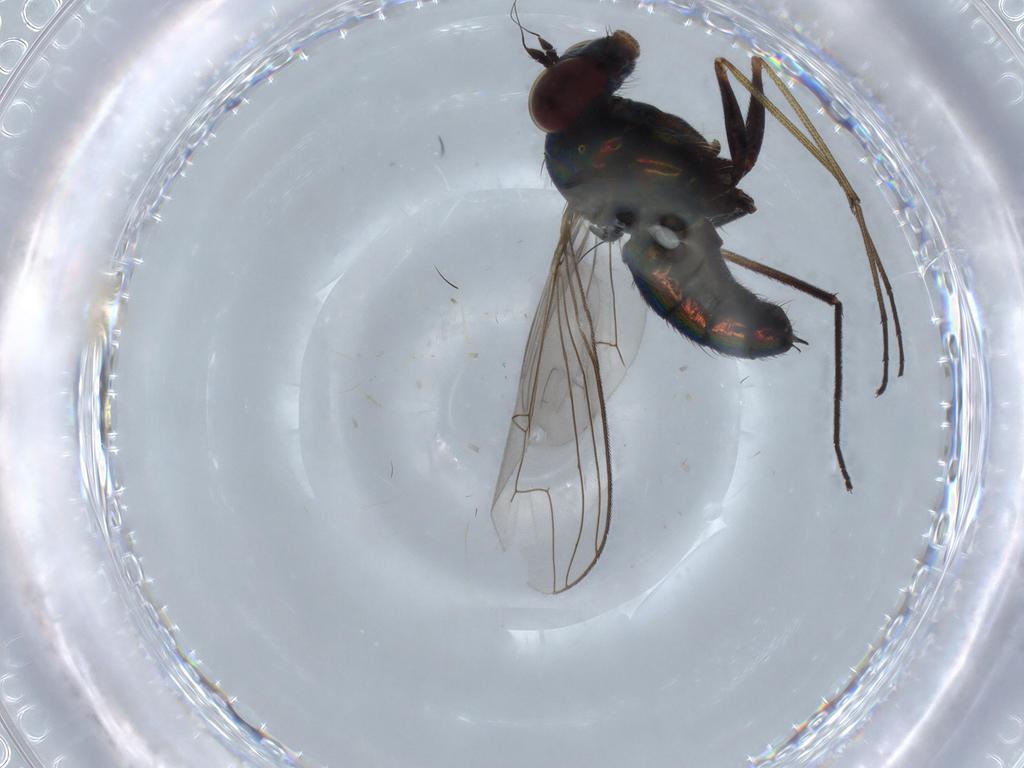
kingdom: Animalia
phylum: Arthropoda
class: Insecta
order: Diptera
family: Dolichopodidae
